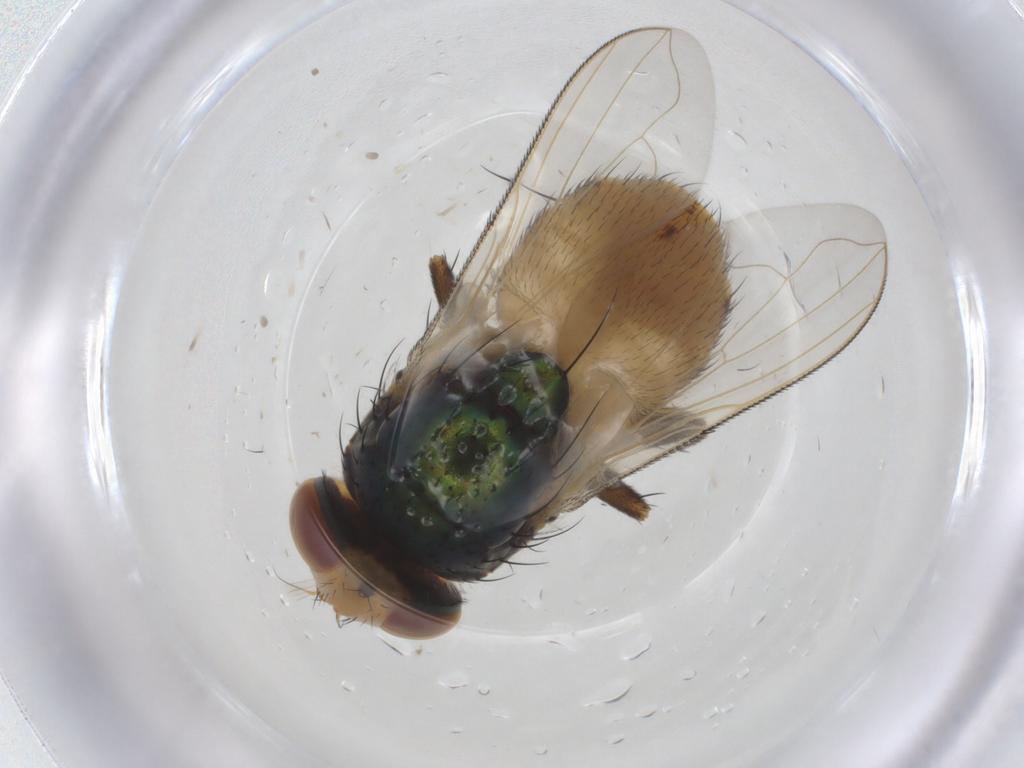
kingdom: Animalia
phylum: Arthropoda
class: Insecta
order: Diptera
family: Calliphoridae
